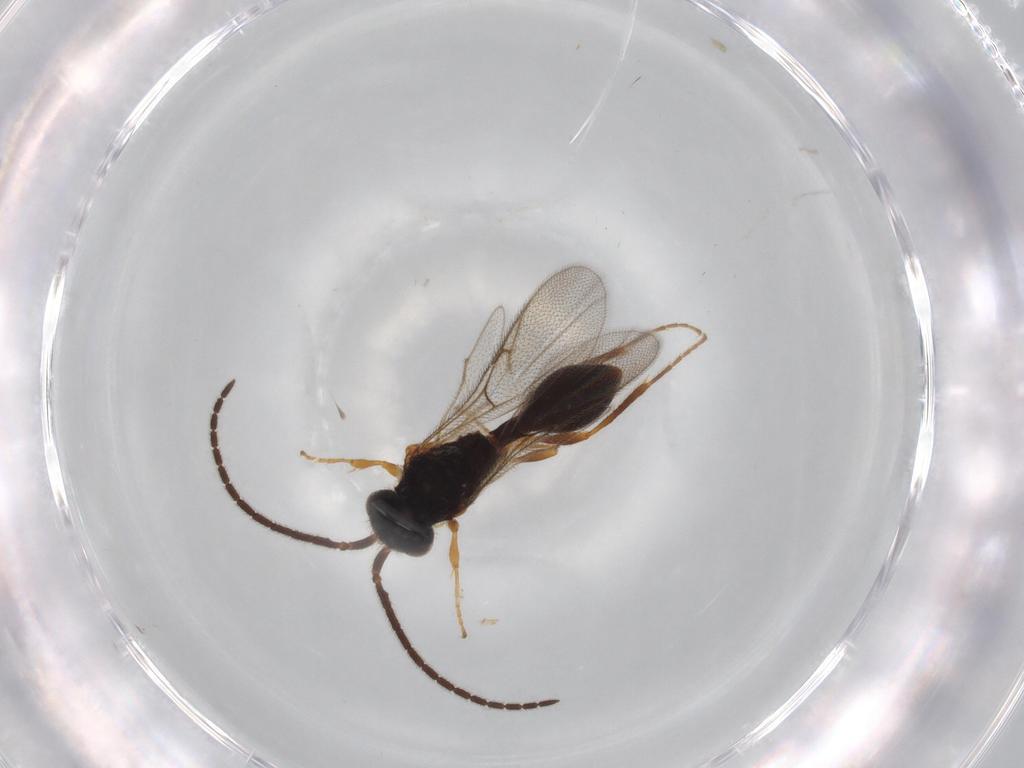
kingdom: Animalia
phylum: Arthropoda
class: Insecta
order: Hymenoptera
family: Diapriidae
